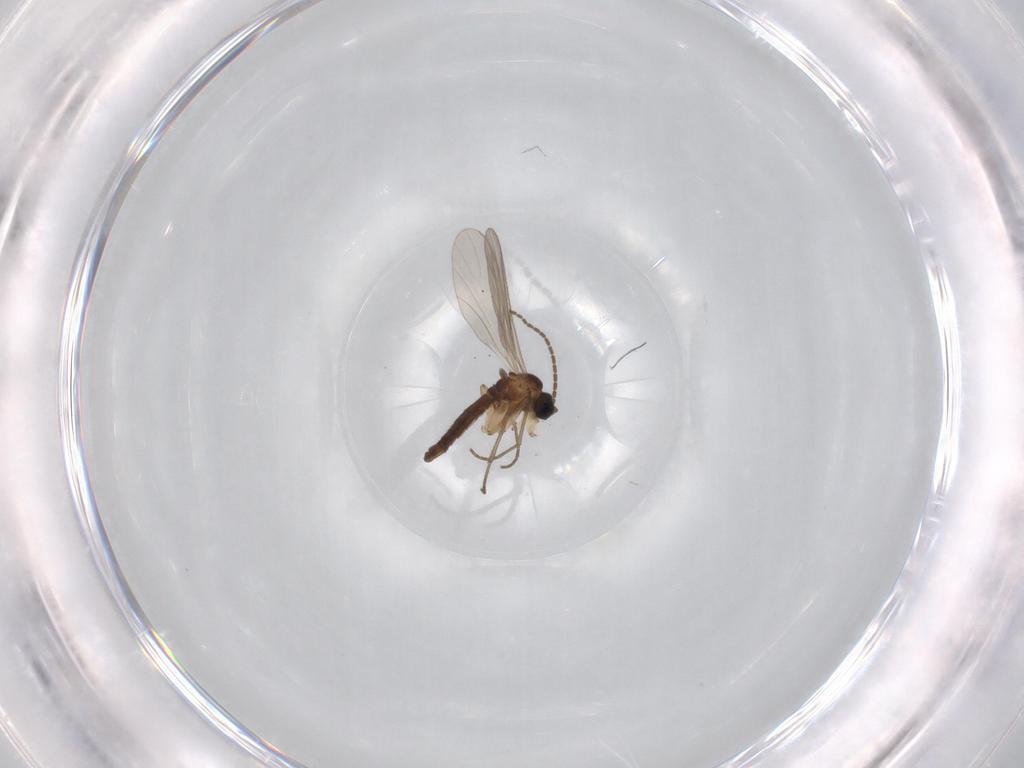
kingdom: Animalia
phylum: Arthropoda
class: Insecta
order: Diptera
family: Sciaridae
